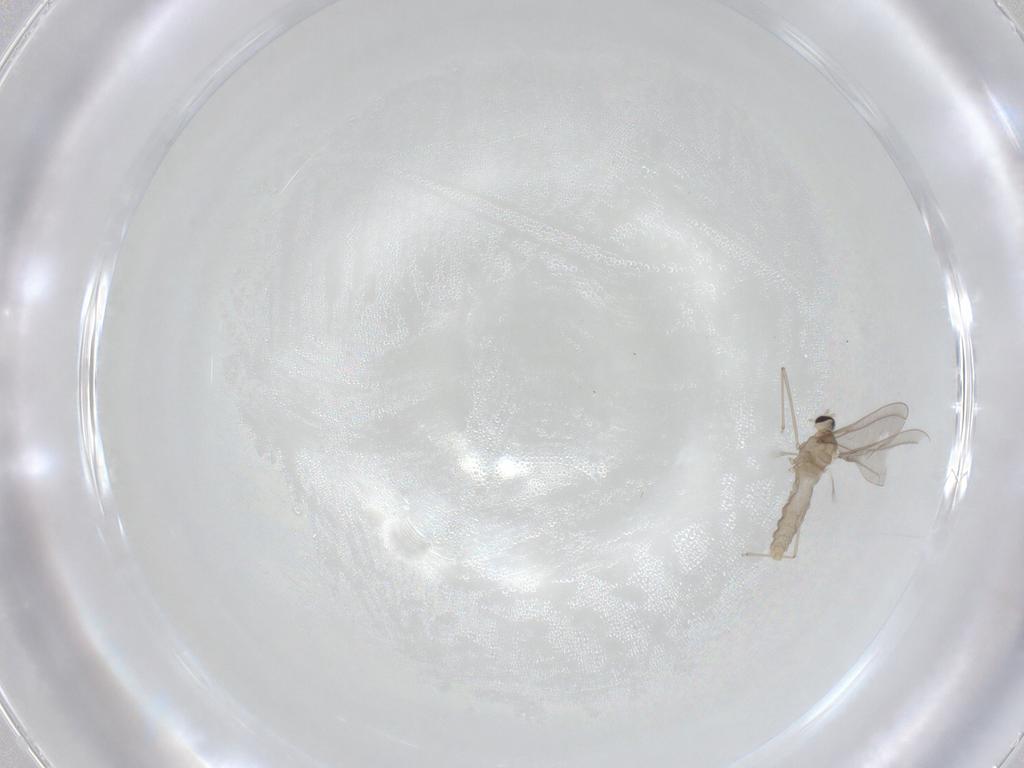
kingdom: Animalia
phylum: Arthropoda
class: Insecta
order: Diptera
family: Cecidomyiidae
